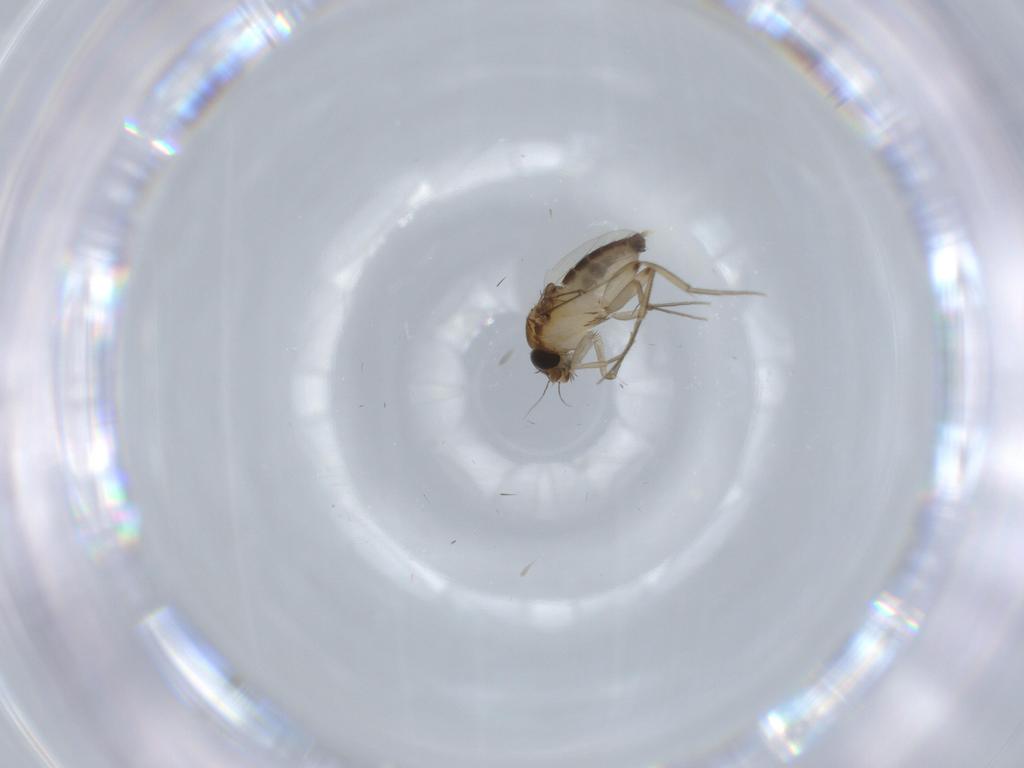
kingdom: Animalia
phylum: Arthropoda
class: Insecta
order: Diptera
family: Phoridae
